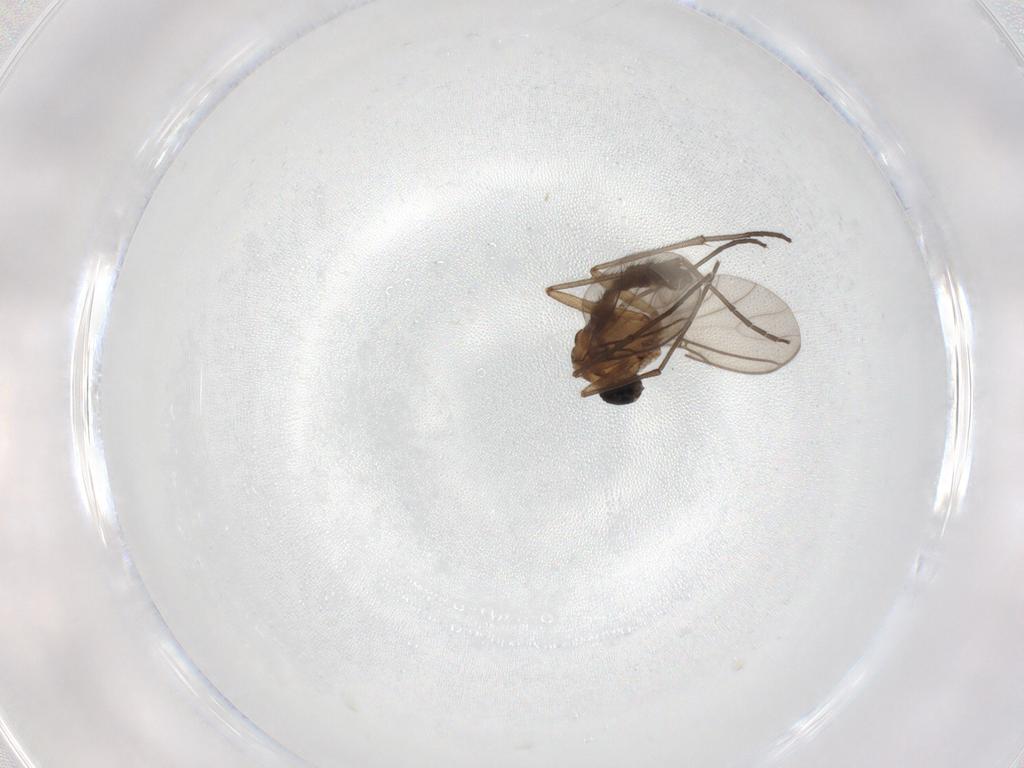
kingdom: Animalia
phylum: Arthropoda
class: Insecta
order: Diptera
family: Sciaridae
